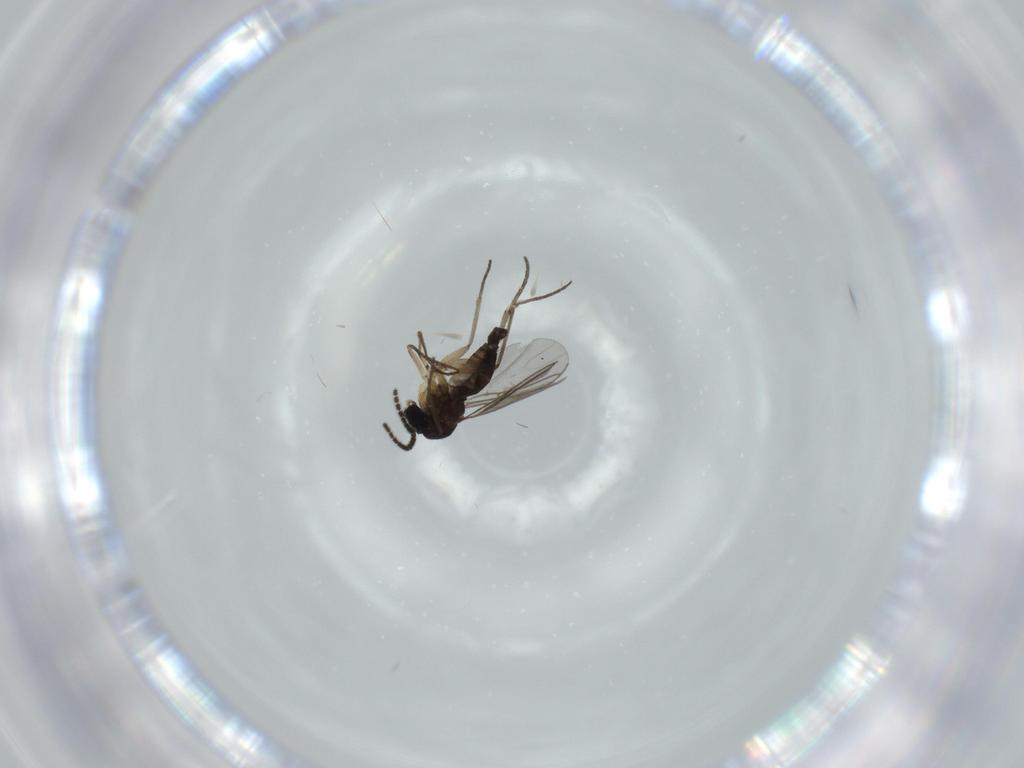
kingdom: Animalia
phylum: Arthropoda
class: Insecta
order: Diptera
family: Sciaridae
